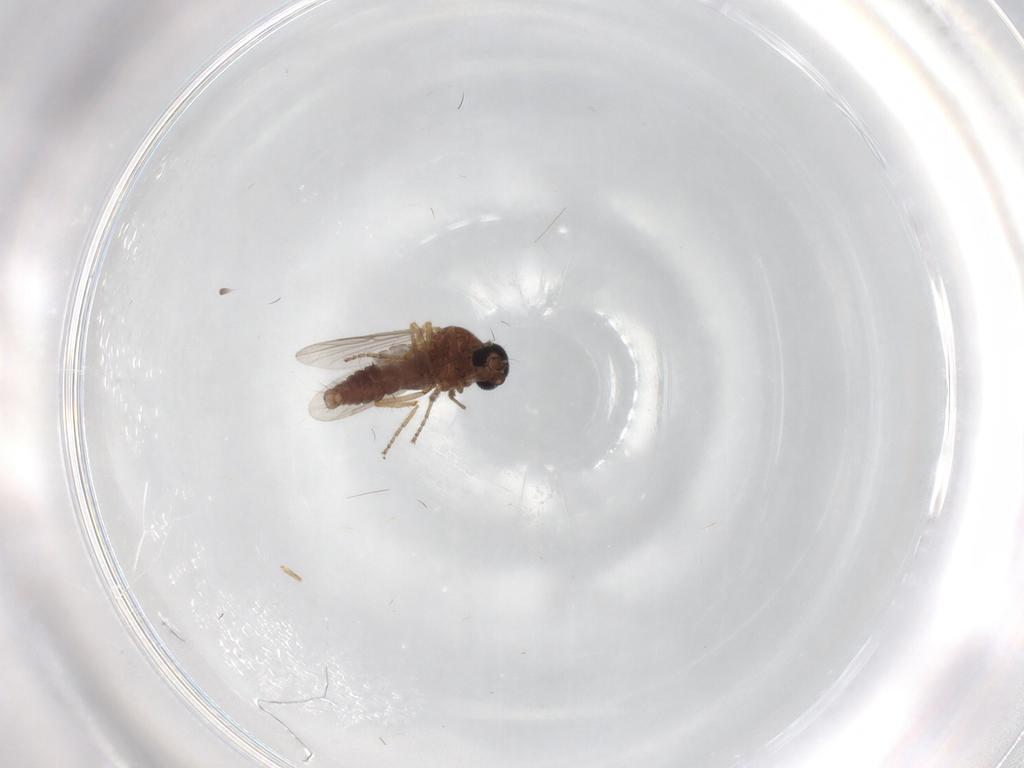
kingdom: Animalia
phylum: Arthropoda
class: Insecta
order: Diptera
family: Ceratopogonidae
